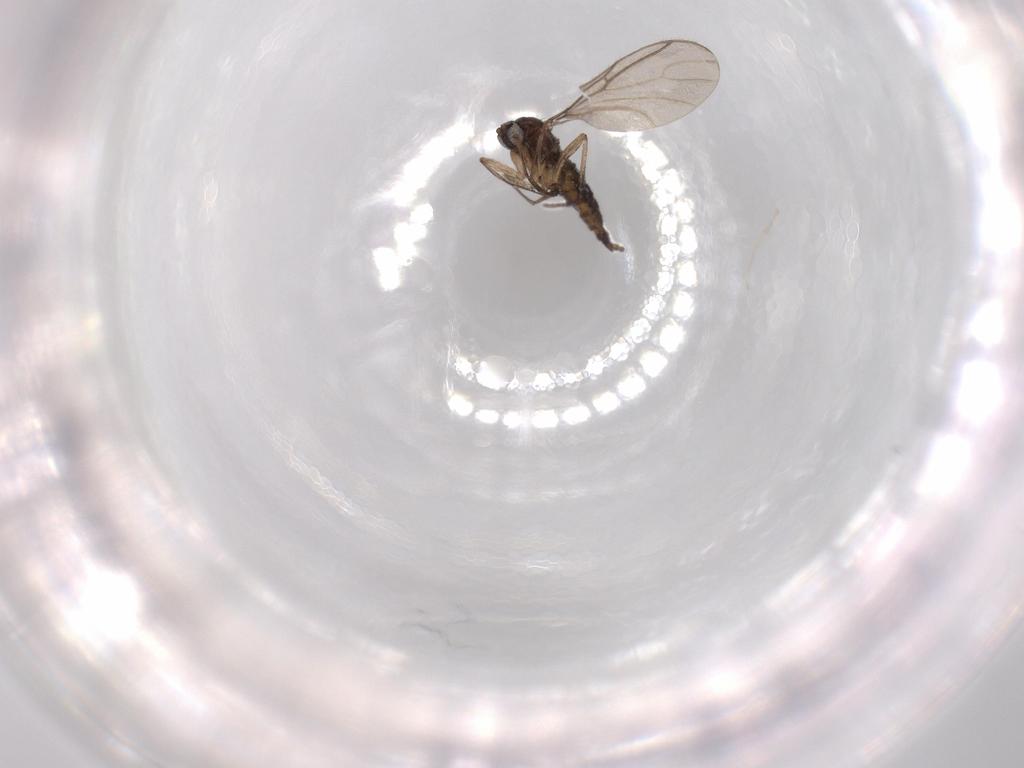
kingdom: Animalia
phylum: Arthropoda
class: Insecta
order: Diptera
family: Sciaridae
